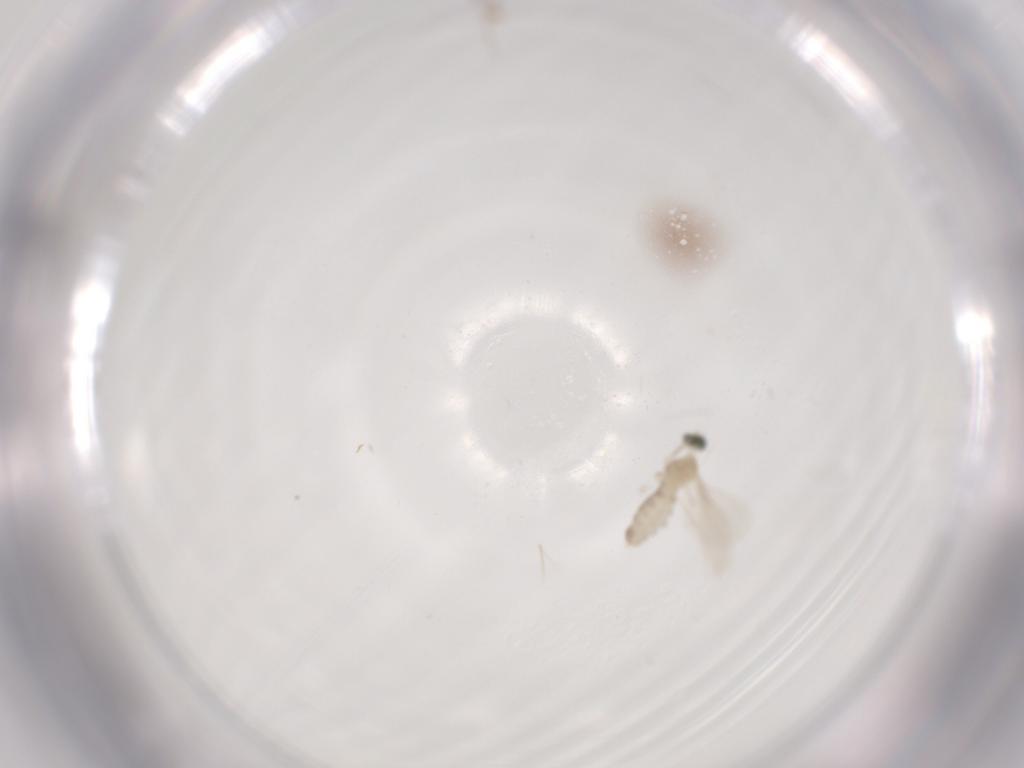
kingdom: Animalia
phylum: Arthropoda
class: Insecta
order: Diptera
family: Cecidomyiidae
